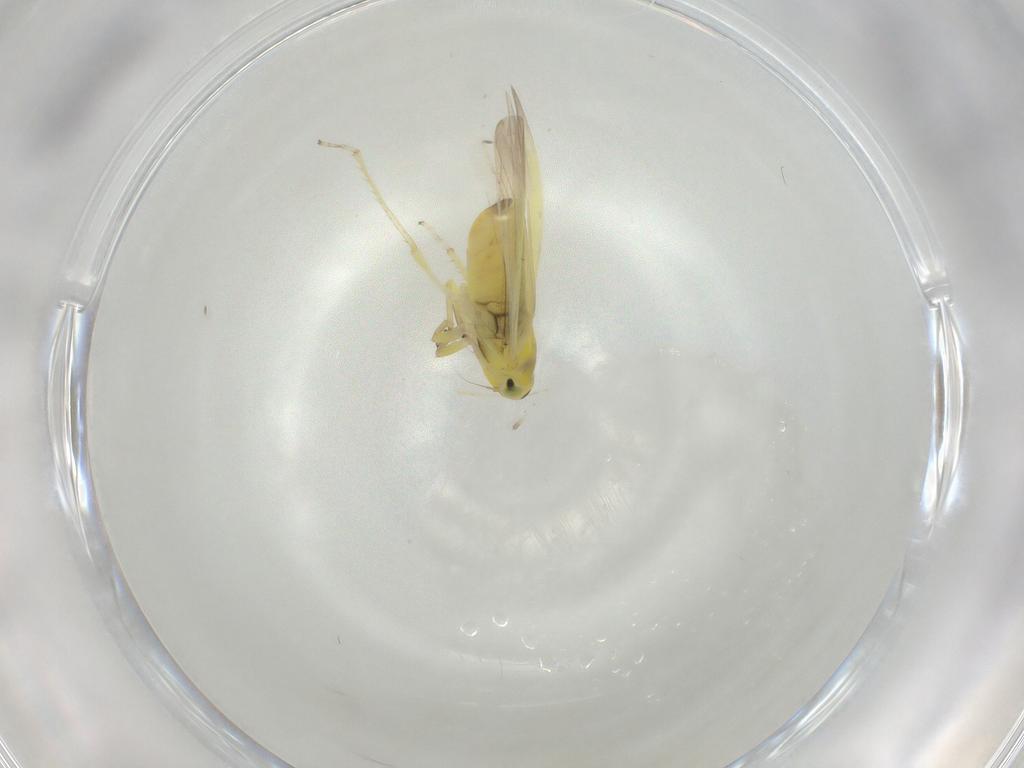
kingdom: Animalia
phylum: Arthropoda
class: Insecta
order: Hemiptera
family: Cicadellidae
